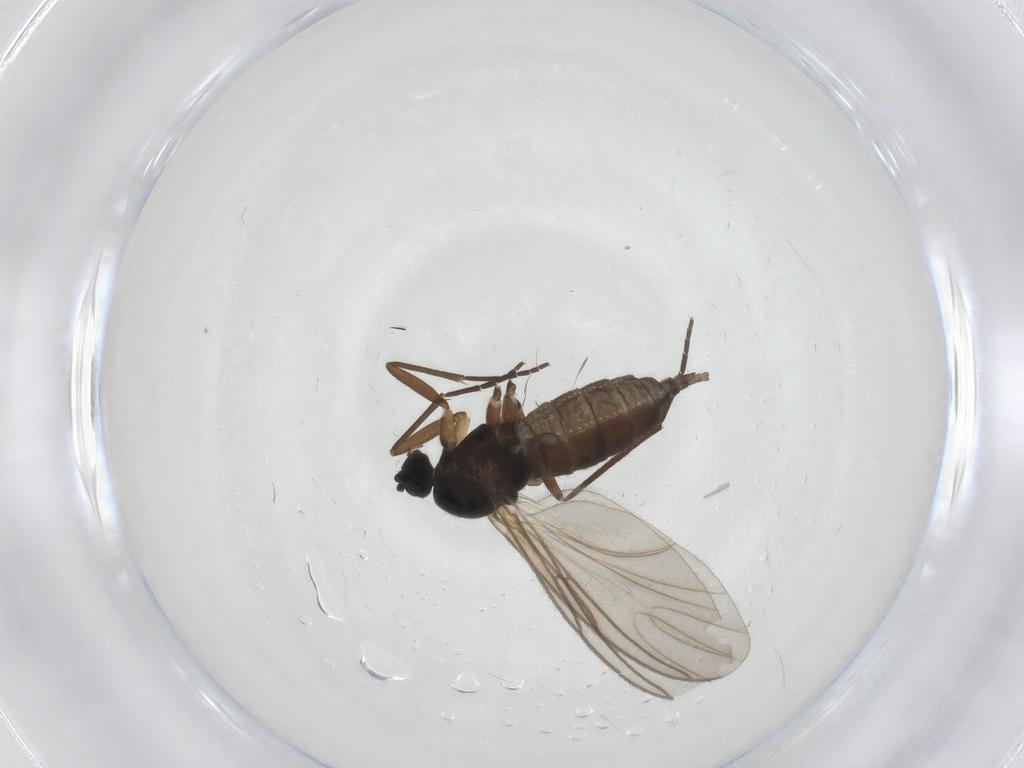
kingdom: Animalia
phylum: Arthropoda
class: Insecta
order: Diptera
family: Sciaridae
